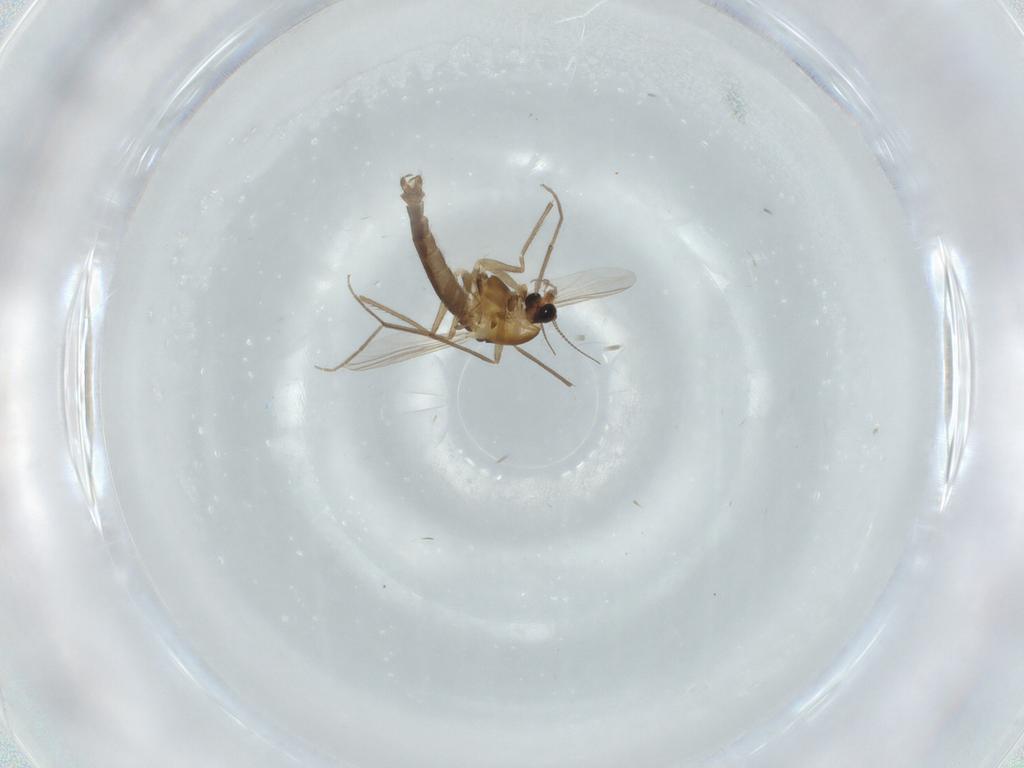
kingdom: Animalia
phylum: Arthropoda
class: Insecta
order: Diptera
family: Chironomidae
